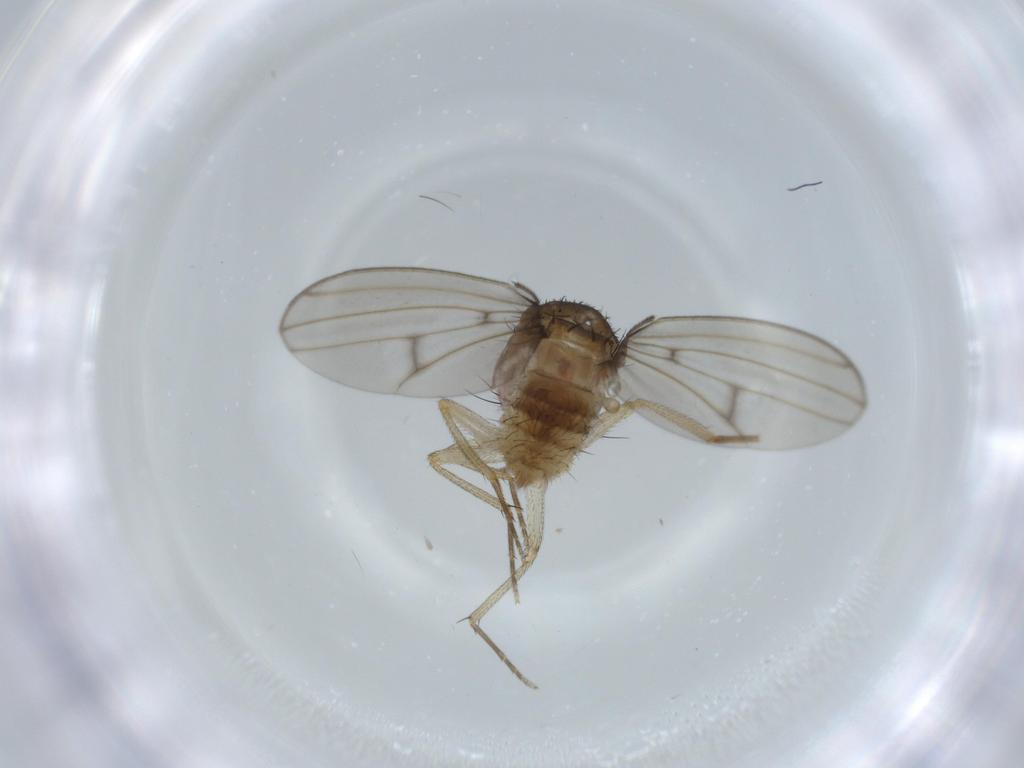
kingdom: Animalia
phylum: Arthropoda
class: Insecta
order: Diptera
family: Drosophilidae
